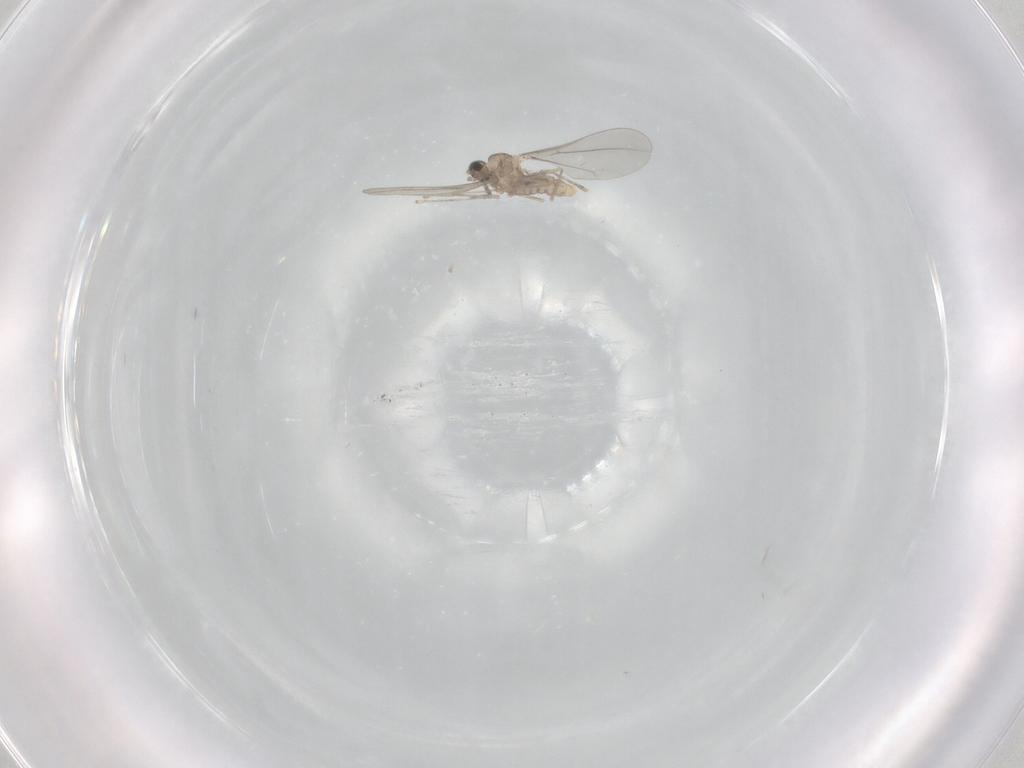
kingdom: Animalia
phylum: Arthropoda
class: Insecta
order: Diptera
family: Cecidomyiidae
